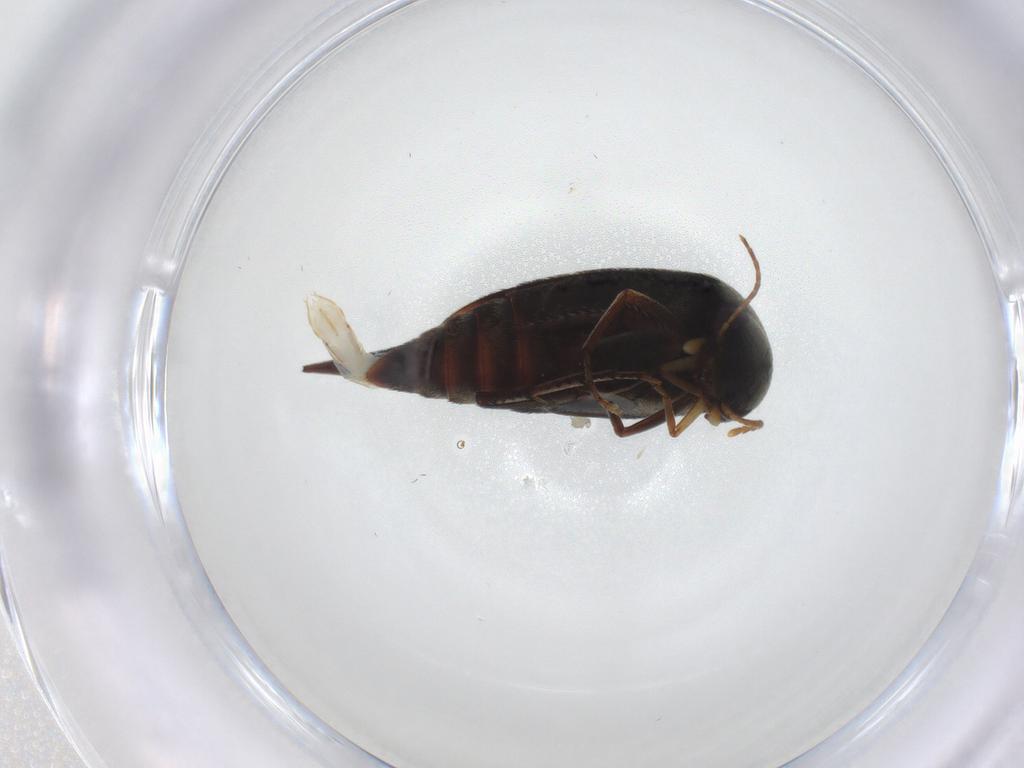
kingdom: Animalia
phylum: Arthropoda
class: Insecta
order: Coleoptera
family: Mordellidae
